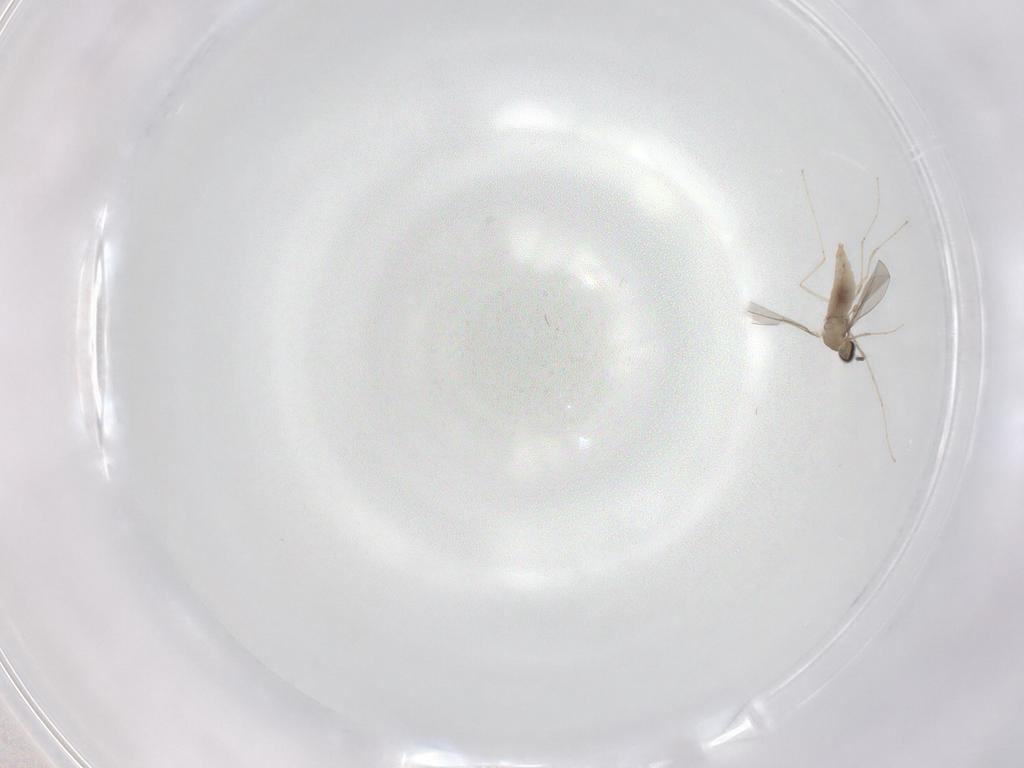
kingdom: Animalia
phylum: Arthropoda
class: Insecta
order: Diptera
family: Cecidomyiidae
